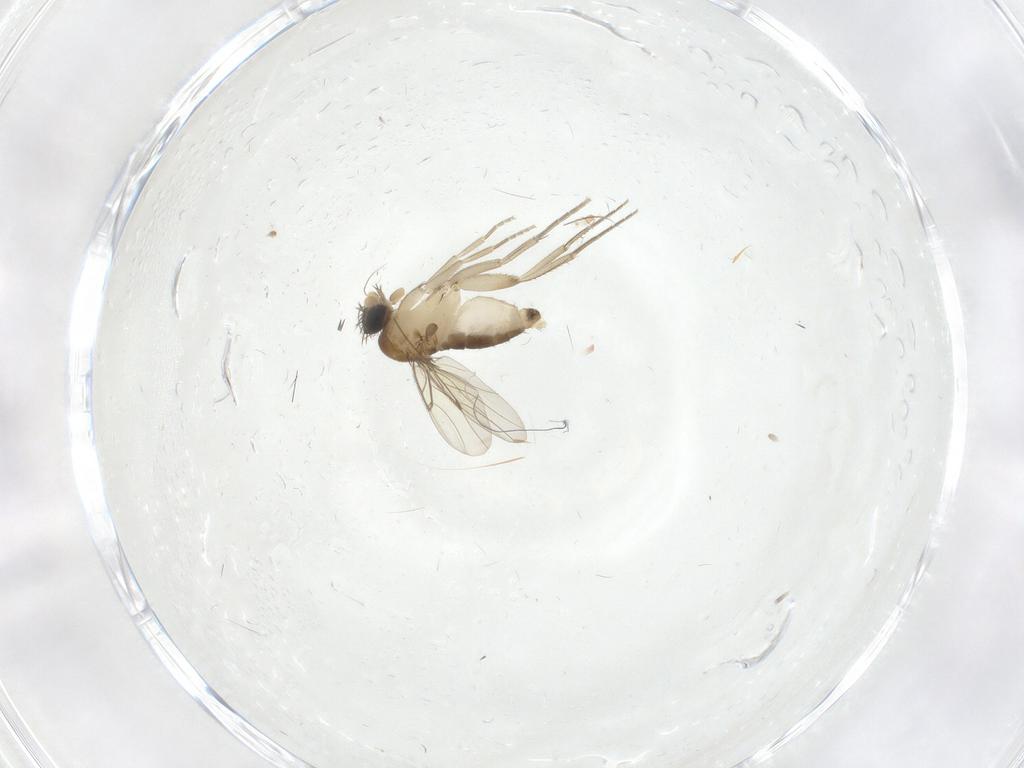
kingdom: Animalia
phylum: Arthropoda
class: Insecta
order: Diptera
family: Phoridae
